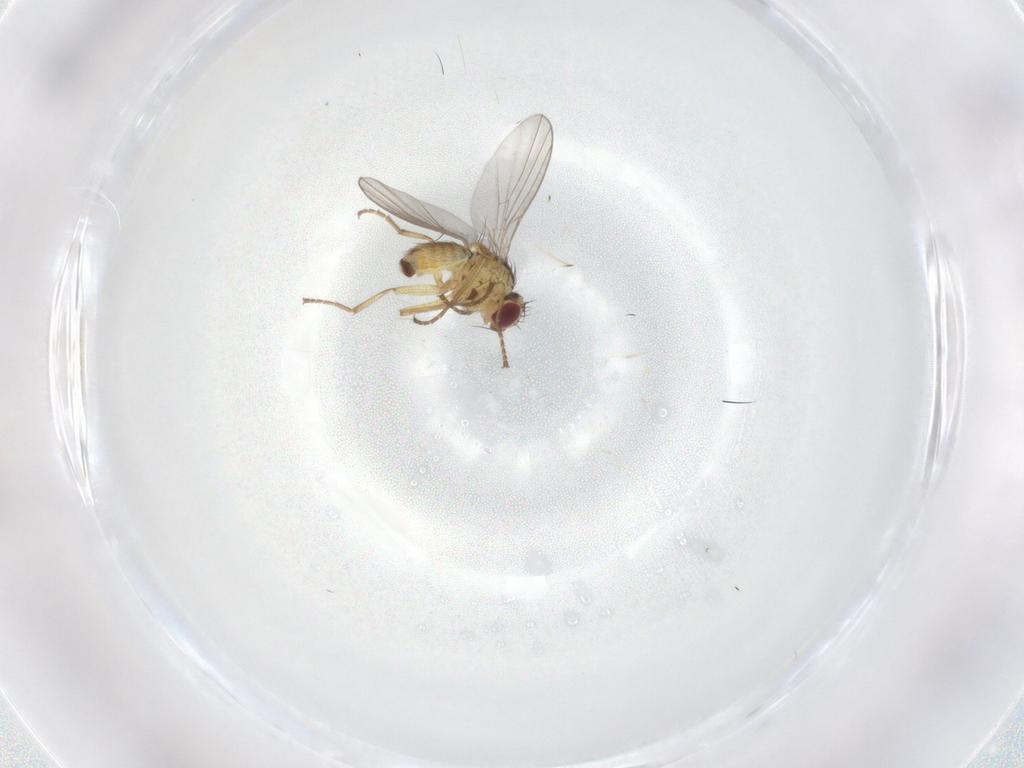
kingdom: Animalia
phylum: Arthropoda
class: Insecta
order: Diptera
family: Agromyzidae
